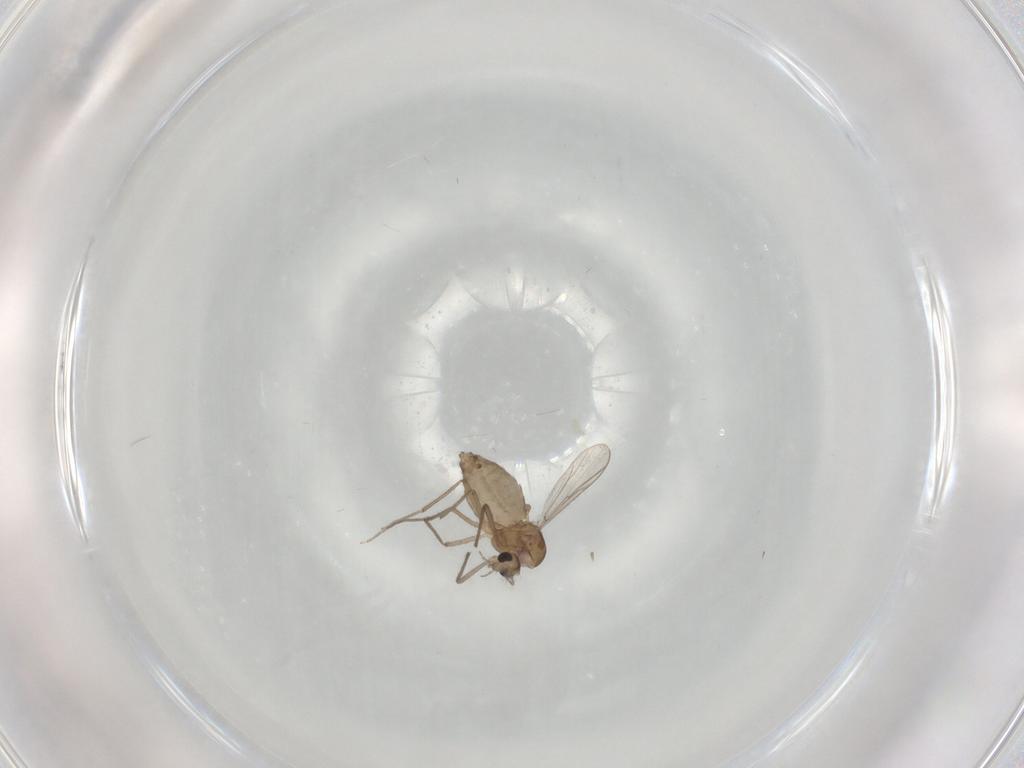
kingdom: Animalia
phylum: Arthropoda
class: Insecta
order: Diptera
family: Chironomidae
